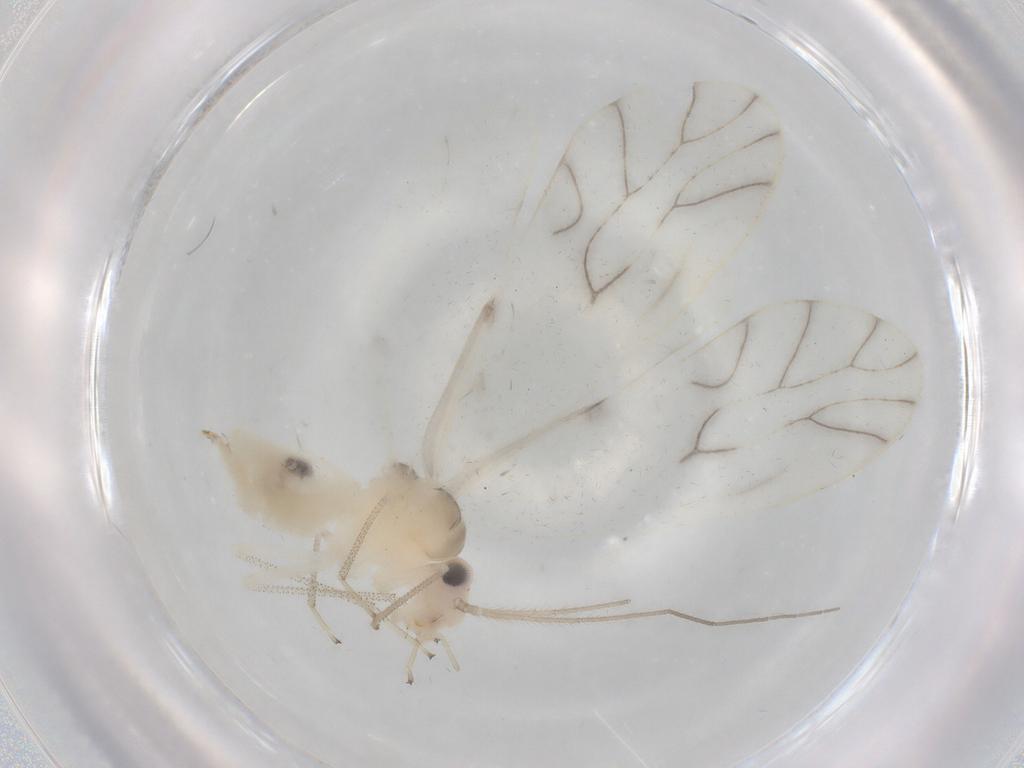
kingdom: Animalia
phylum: Arthropoda
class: Insecta
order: Psocodea
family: Caeciliusidae
